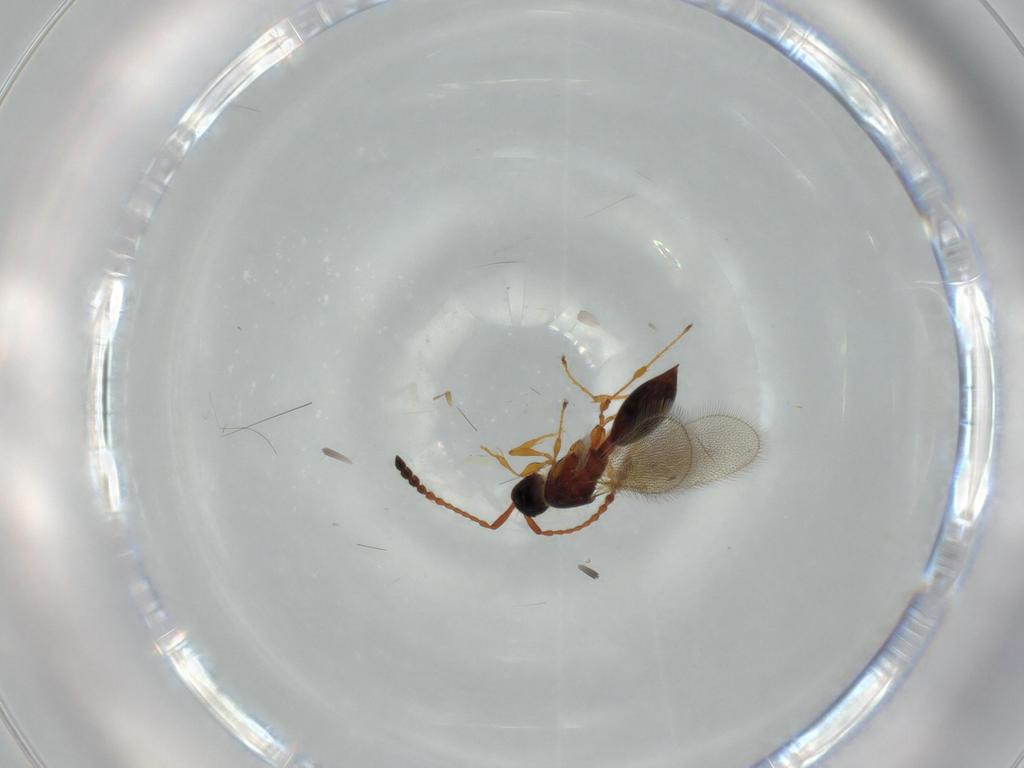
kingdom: Animalia
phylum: Arthropoda
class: Insecta
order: Hymenoptera
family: Diapriidae
